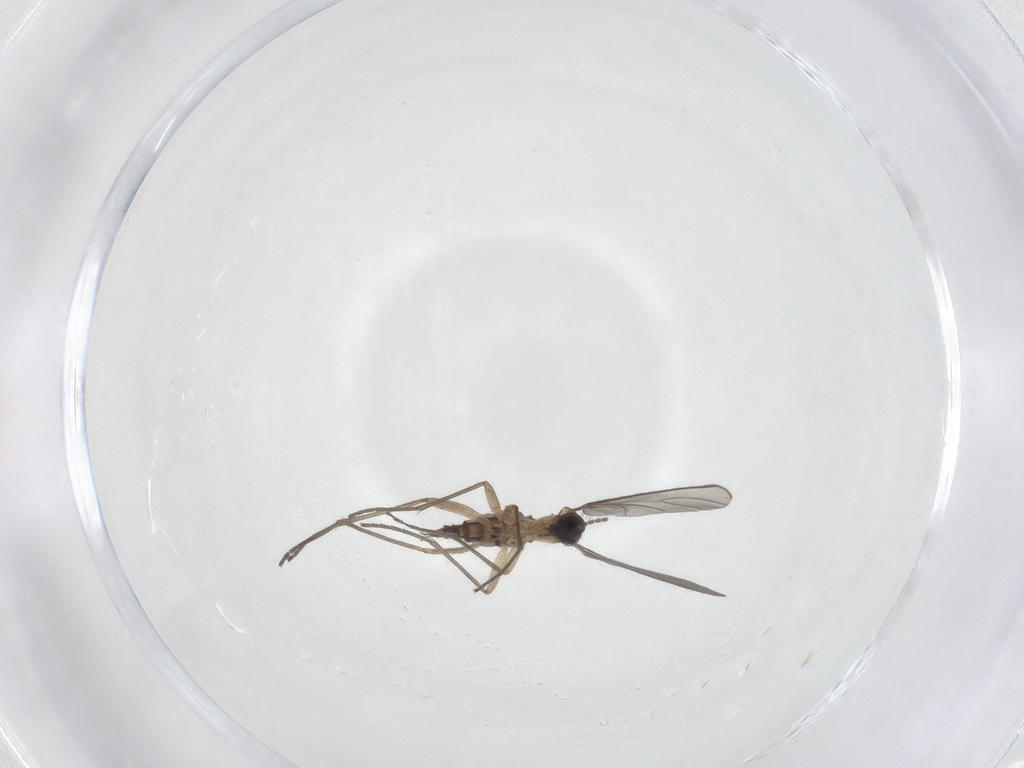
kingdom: Animalia
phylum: Arthropoda
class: Insecta
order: Diptera
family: Sciaridae
